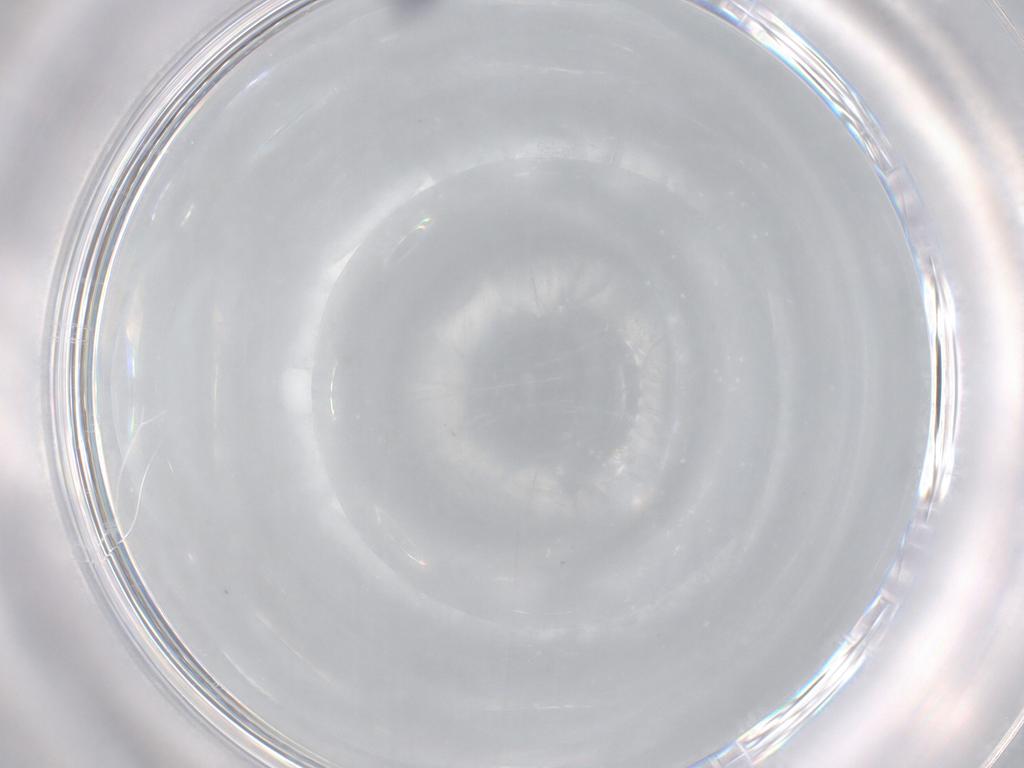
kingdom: Animalia
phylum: Arthropoda
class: Collembola
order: Entomobryomorpha
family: Entomobryidae
